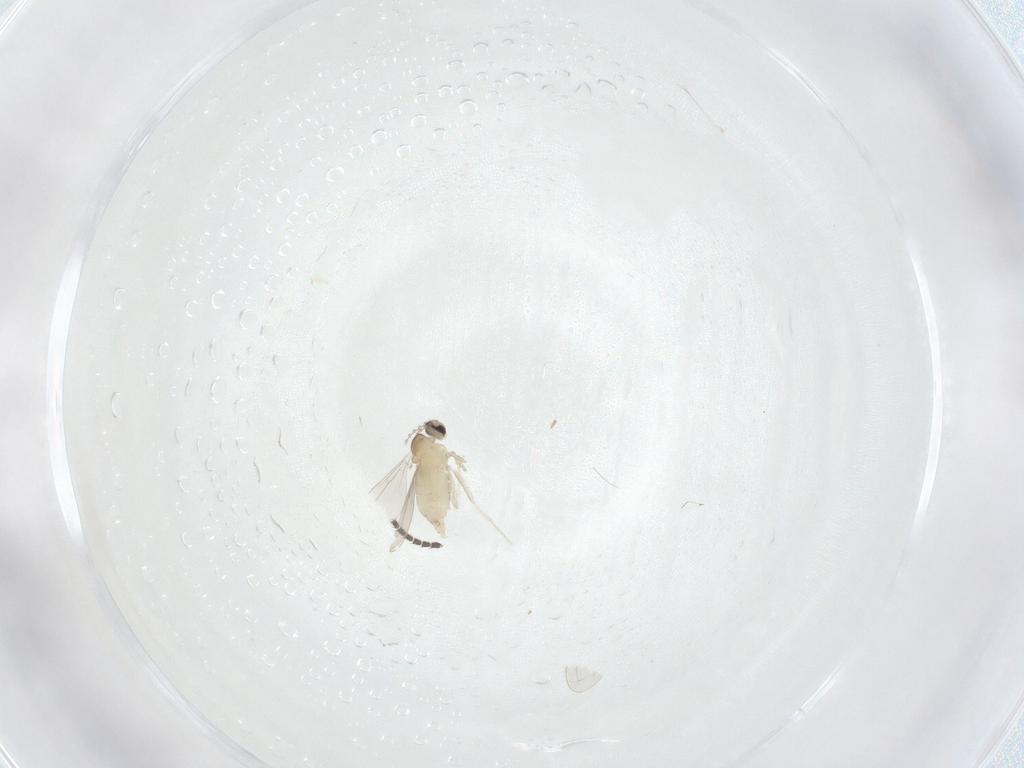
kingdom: Animalia
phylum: Arthropoda
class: Insecta
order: Diptera
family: Cecidomyiidae
